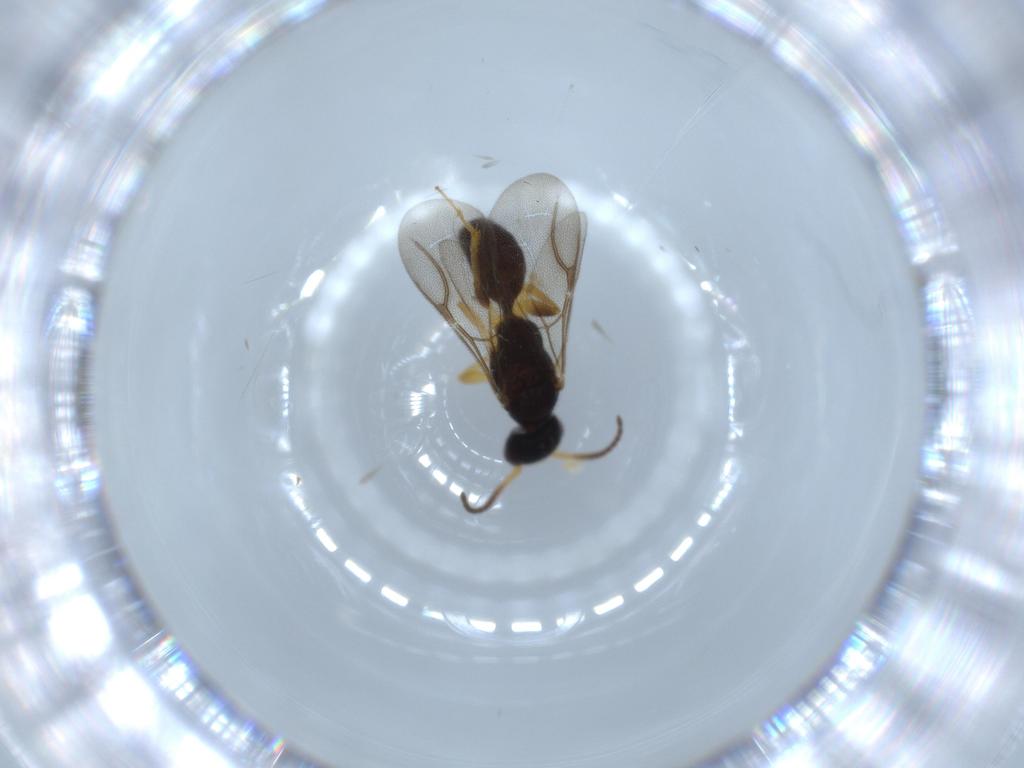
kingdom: Animalia
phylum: Arthropoda
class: Insecta
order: Hymenoptera
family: Bethylidae
